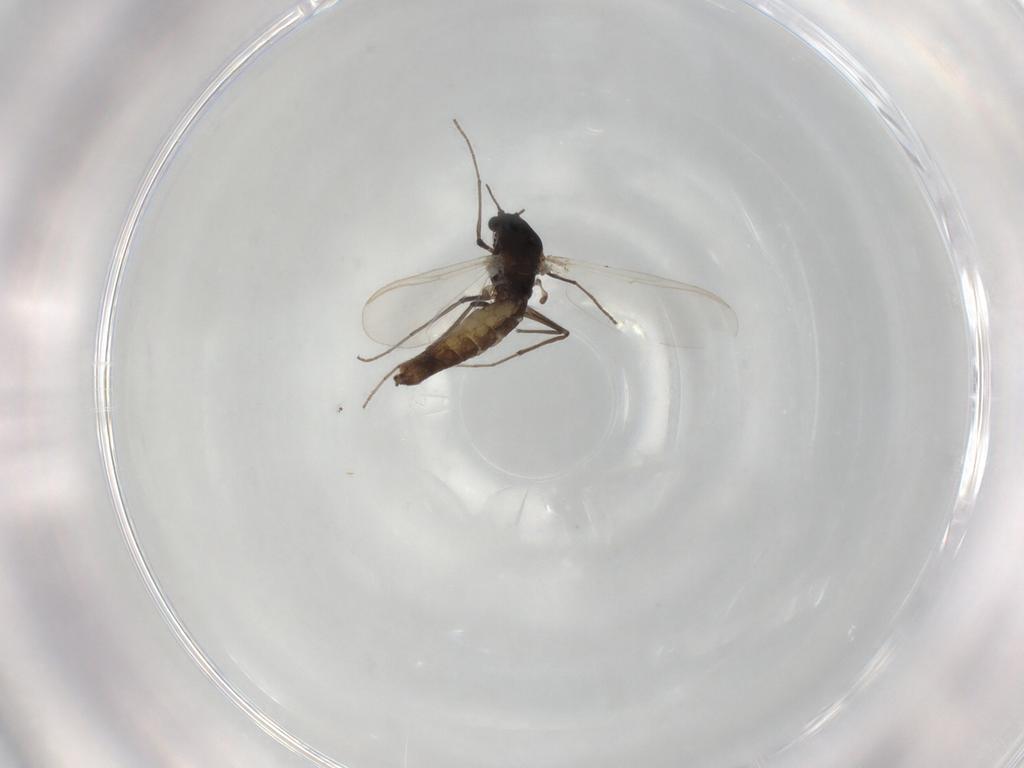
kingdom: Animalia
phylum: Arthropoda
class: Insecta
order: Diptera
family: Chironomidae
